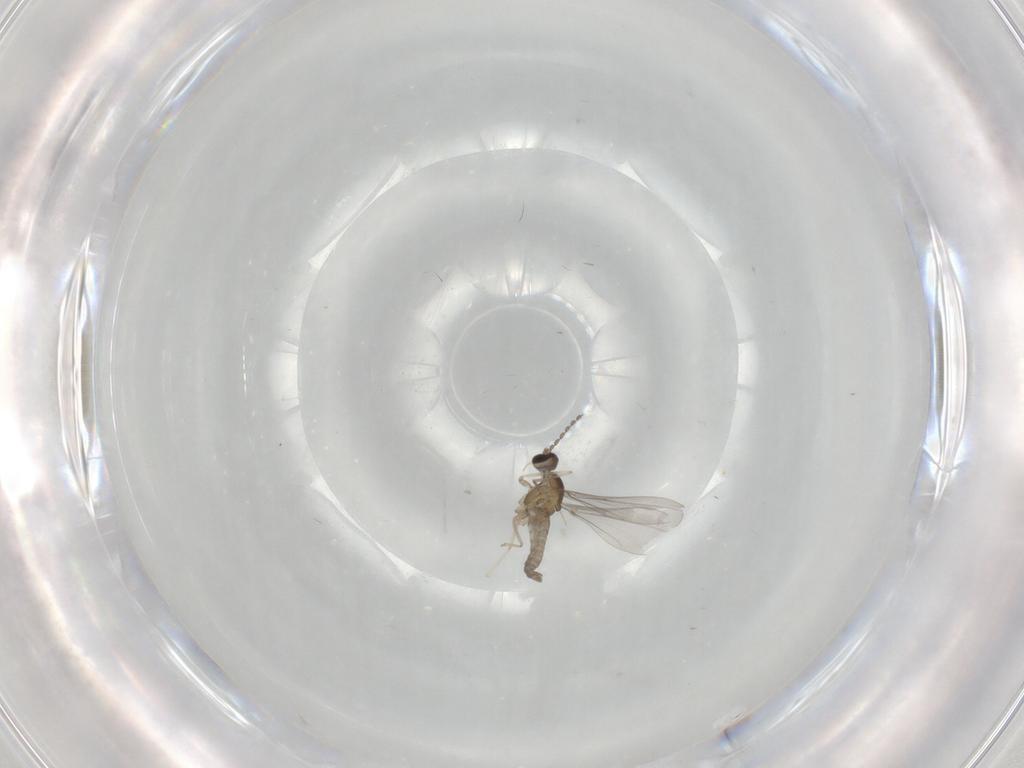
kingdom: Animalia
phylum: Arthropoda
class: Insecta
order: Diptera
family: Cecidomyiidae
